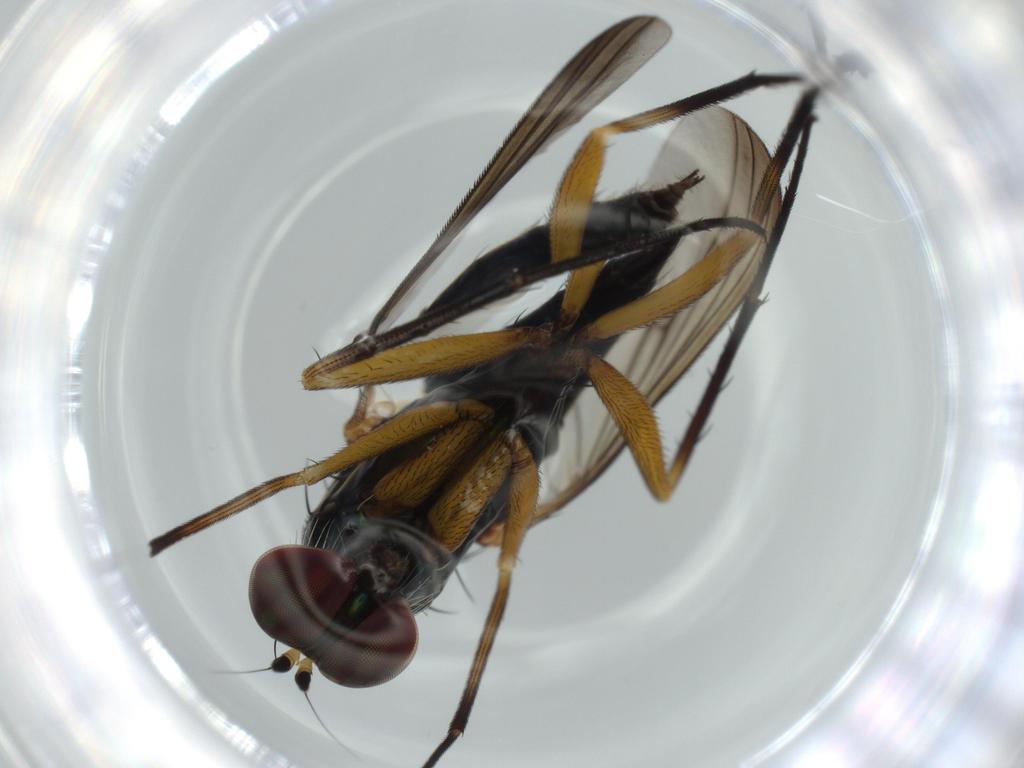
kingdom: Animalia
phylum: Arthropoda
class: Insecta
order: Diptera
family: Dolichopodidae
